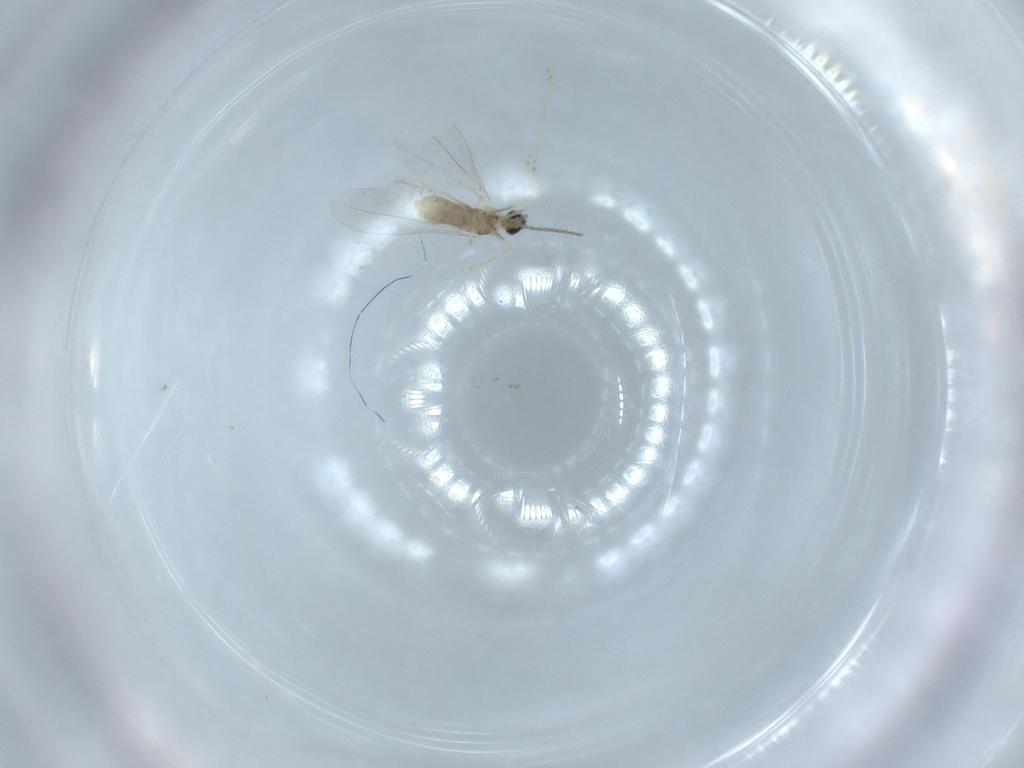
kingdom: Animalia
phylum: Arthropoda
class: Insecta
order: Diptera
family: Cecidomyiidae
